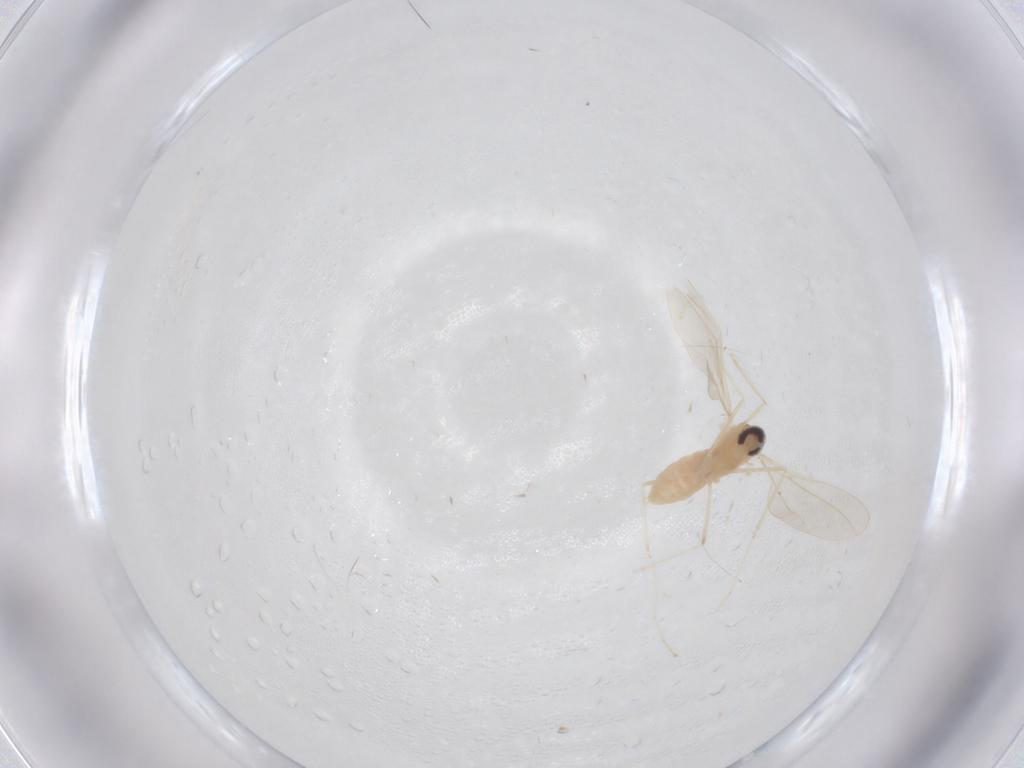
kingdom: Animalia
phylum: Arthropoda
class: Insecta
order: Diptera
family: Cecidomyiidae
